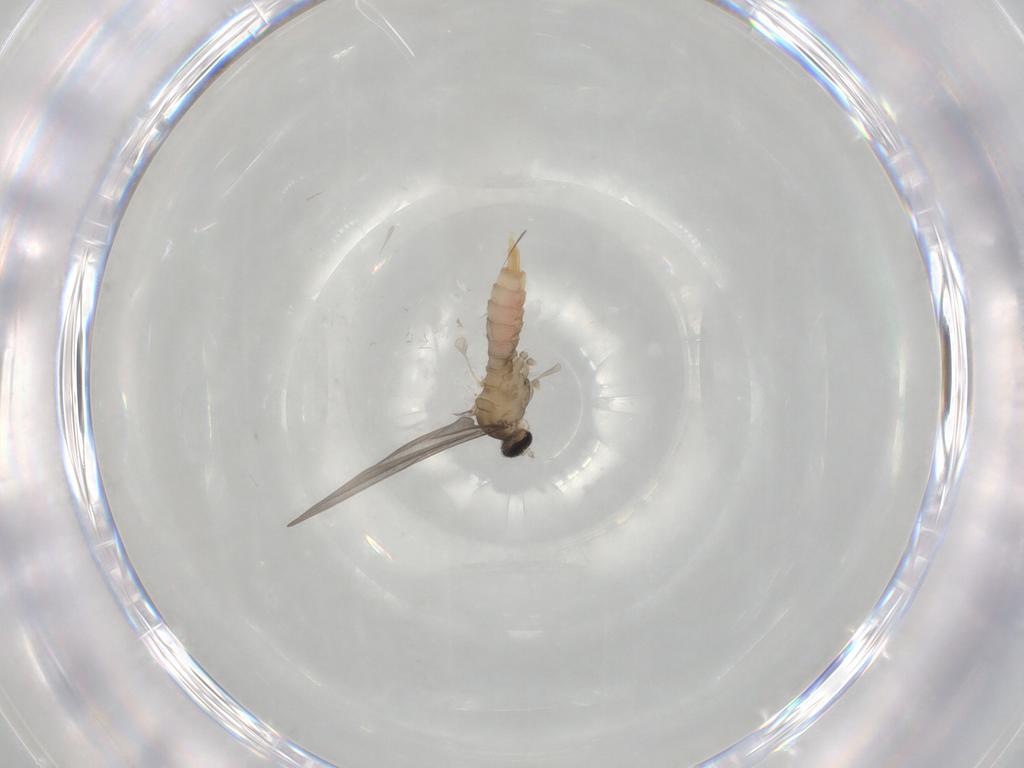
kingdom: Animalia
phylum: Arthropoda
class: Insecta
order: Diptera
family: Cecidomyiidae
